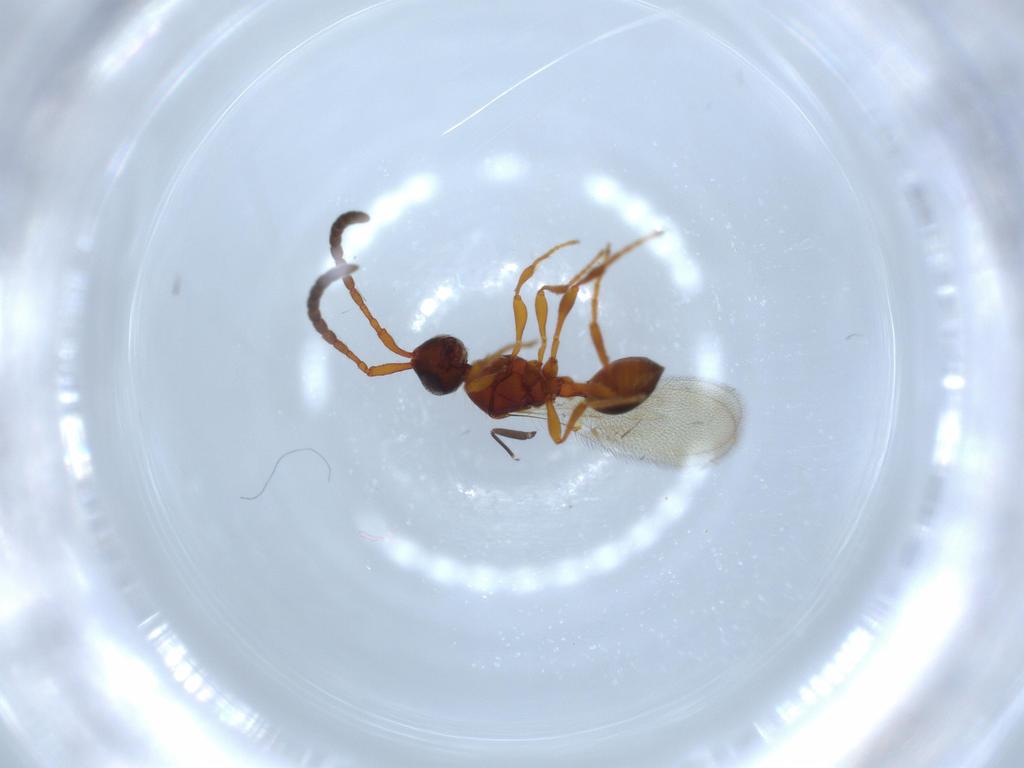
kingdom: Animalia
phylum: Arthropoda
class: Insecta
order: Hymenoptera
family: Diapriidae
